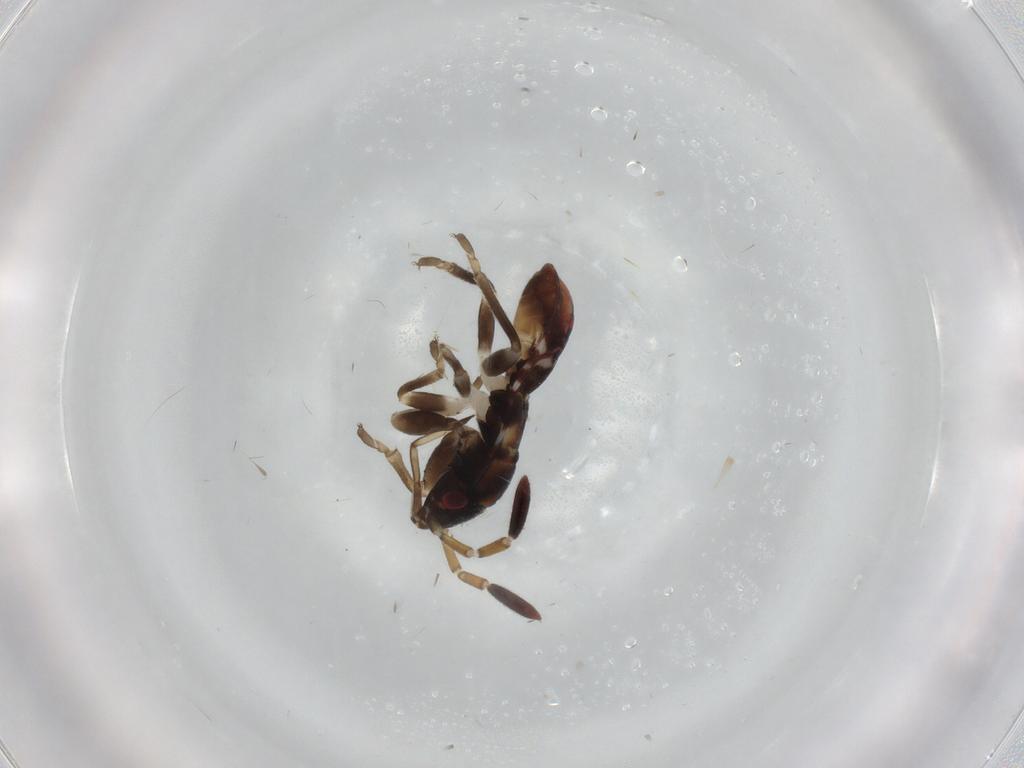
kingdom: Animalia
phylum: Arthropoda
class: Insecta
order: Hemiptera
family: Rhyparochromidae
